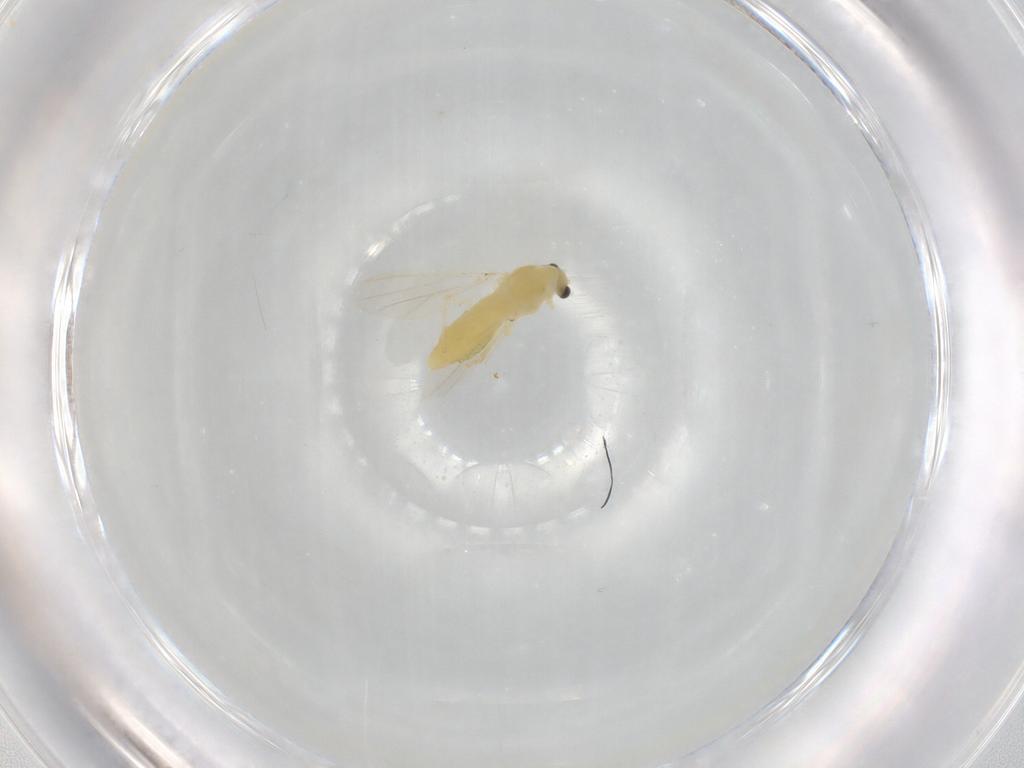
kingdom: Animalia
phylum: Arthropoda
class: Insecta
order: Diptera
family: Chironomidae
